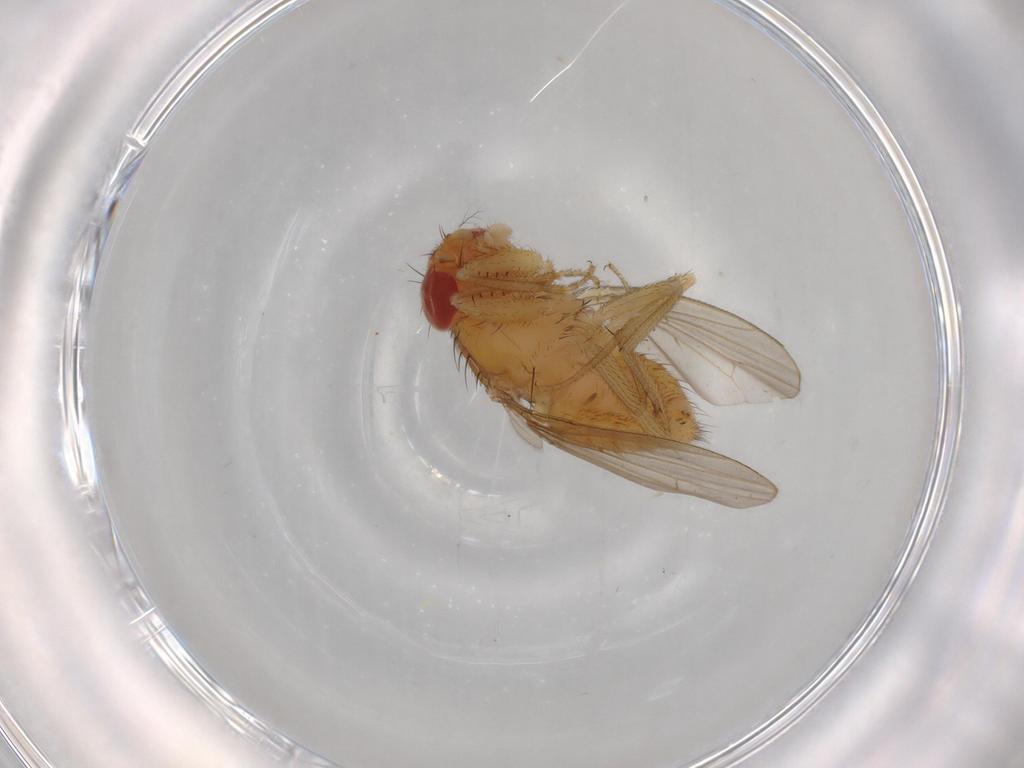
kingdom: Animalia
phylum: Arthropoda
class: Insecta
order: Diptera
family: Drosophilidae
